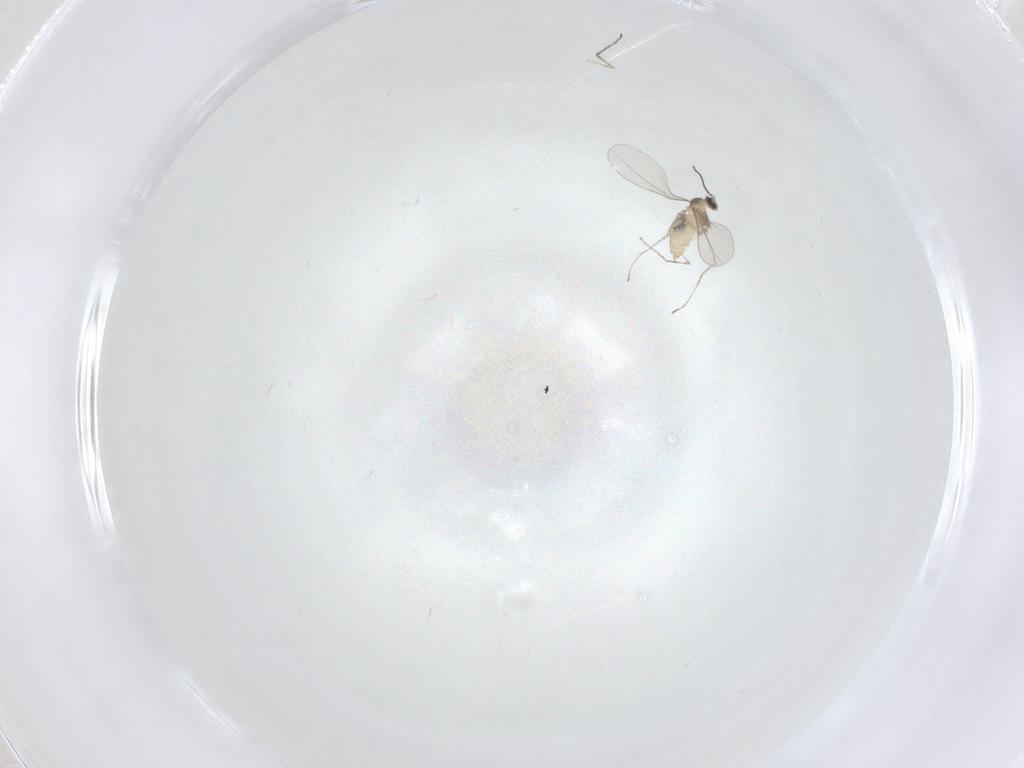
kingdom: Animalia
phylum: Arthropoda
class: Insecta
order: Diptera
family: Cecidomyiidae
